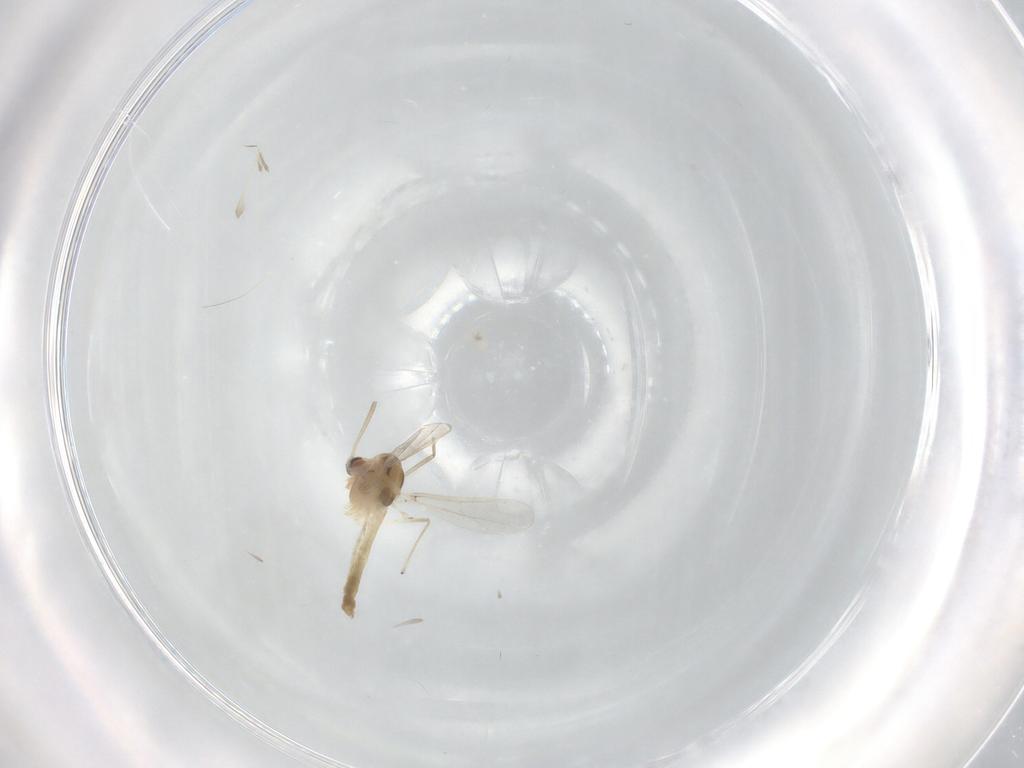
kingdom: Animalia
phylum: Arthropoda
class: Insecta
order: Diptera
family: Chironomidae
